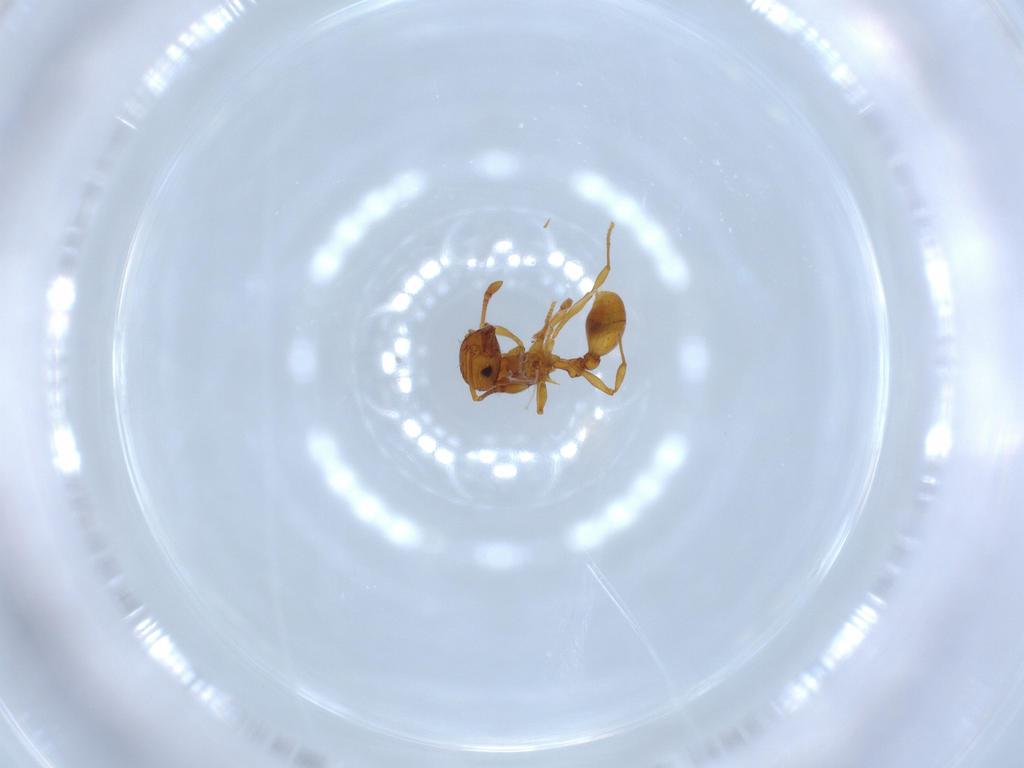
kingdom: Animalia
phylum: Arthropoda
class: Insecta
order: Hymenoptera
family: Formicidae
